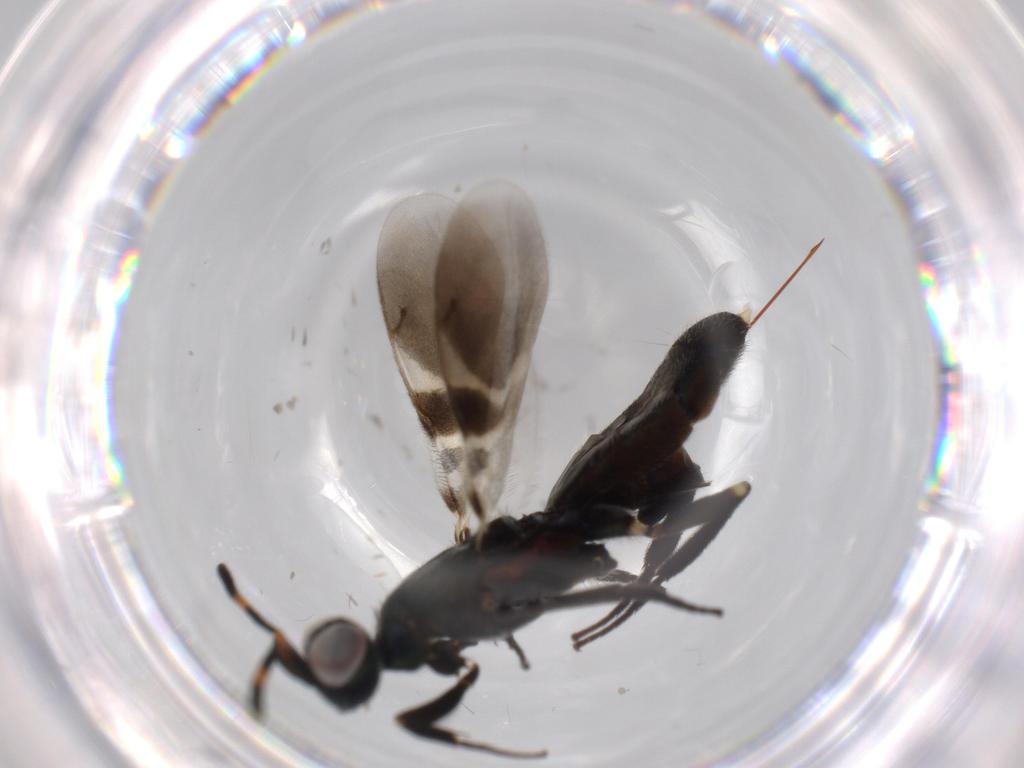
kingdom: Animalia
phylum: Arthropoda
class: Insecta
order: Hymenoptera
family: Eupelmidae
